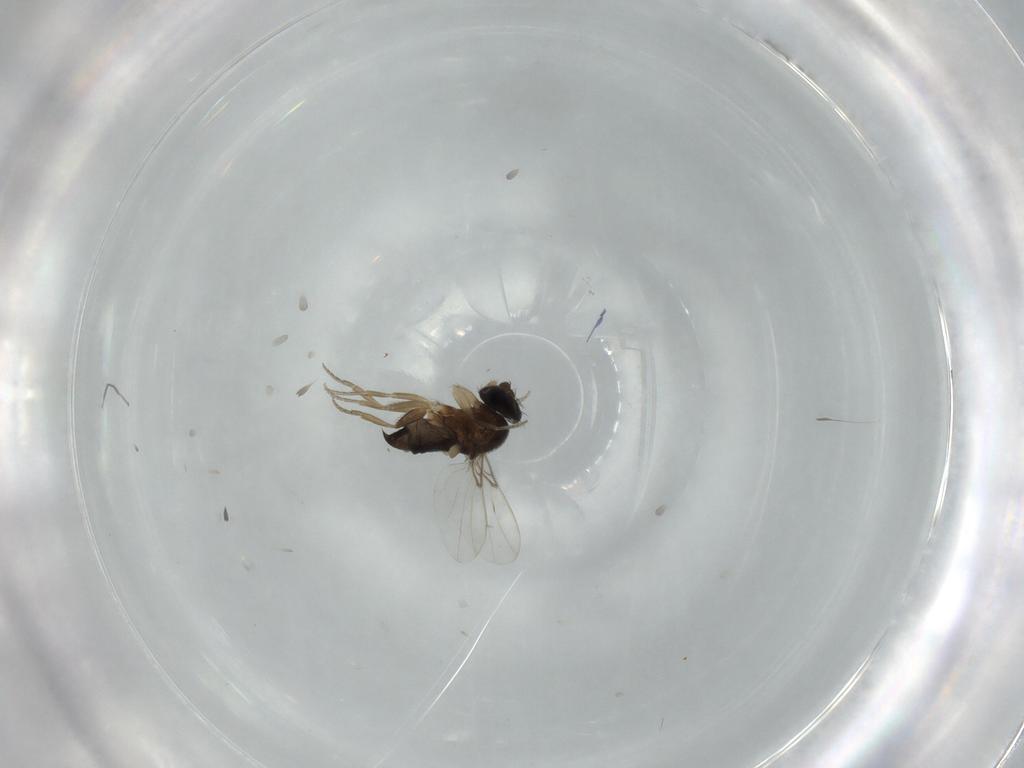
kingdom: Animalia
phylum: Arthropoda
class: Insecta
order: Diptera
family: Phoridae
